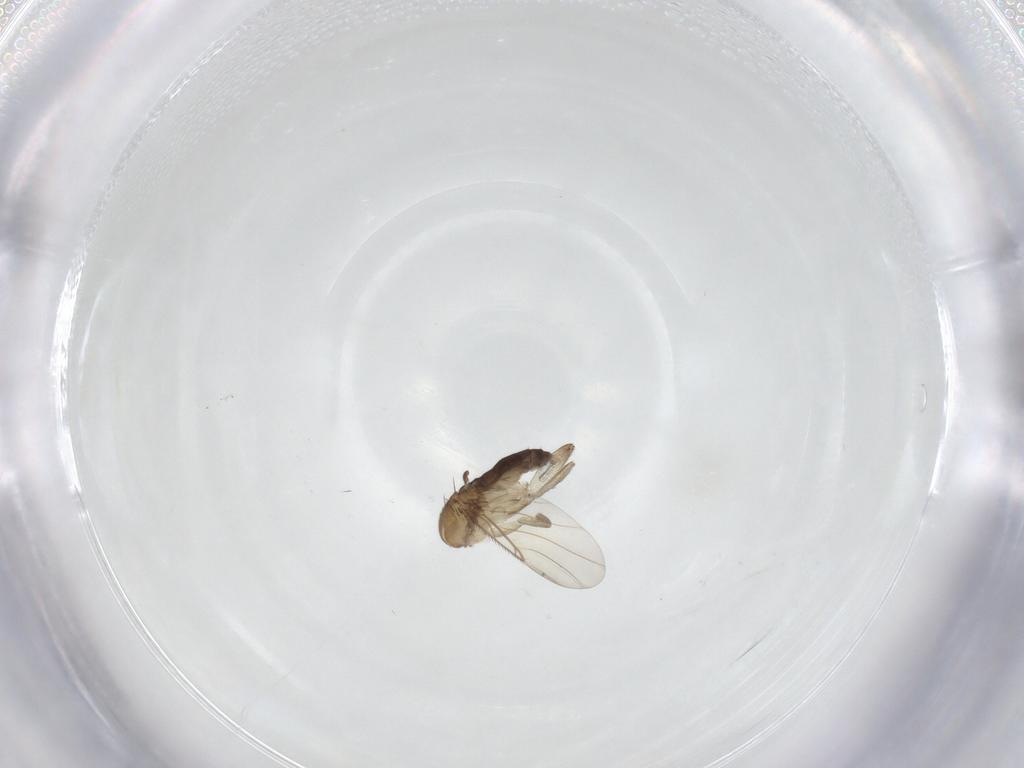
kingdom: Animalia
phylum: Arthropoda
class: Insecta
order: Diptera
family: Phoridae
